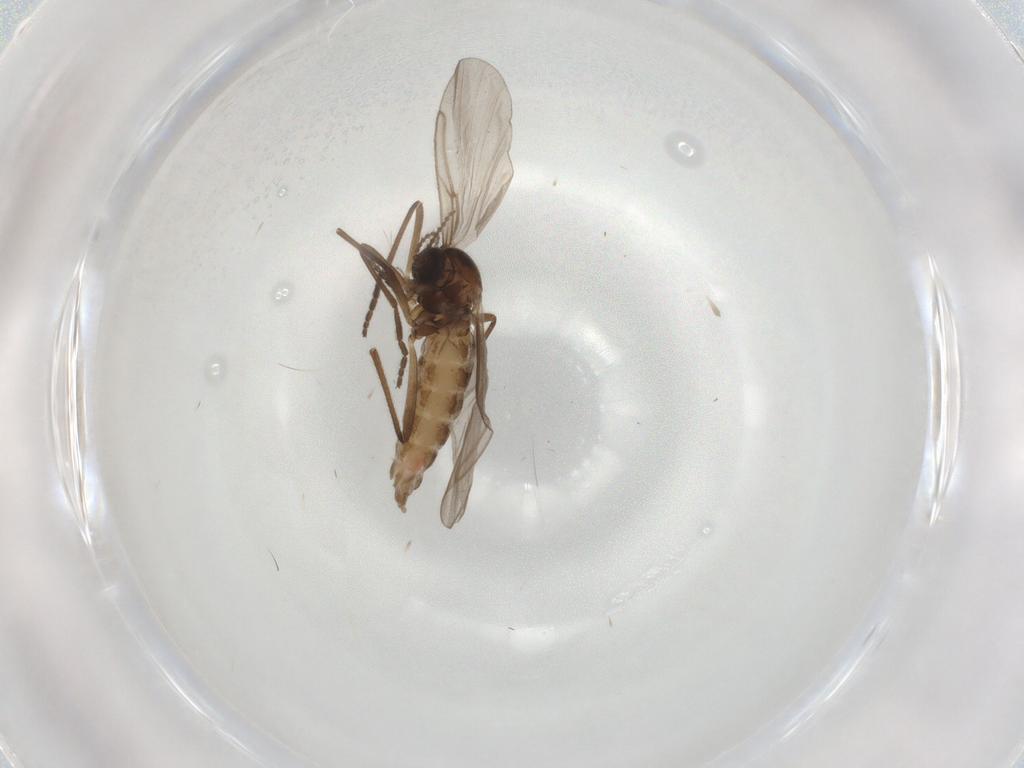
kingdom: Animalia
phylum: Arthropoda
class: Insecta
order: Diptera
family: Cecidomyiidae
